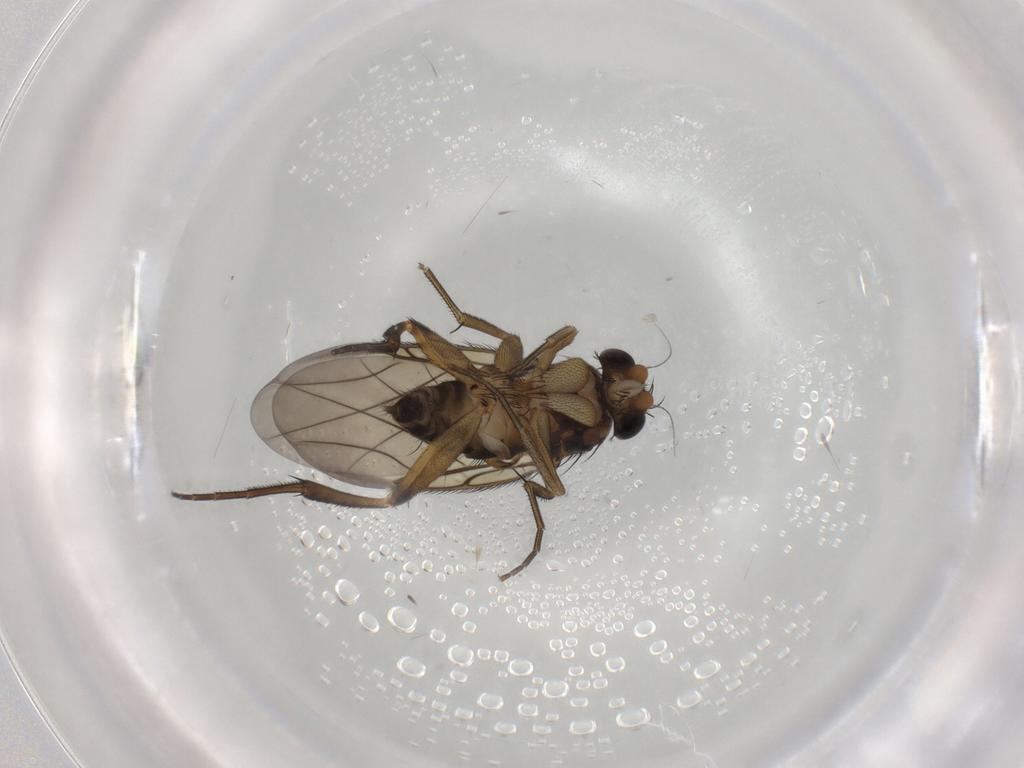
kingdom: Animalia
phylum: Arthropoda
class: Insecta
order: Diptera
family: Phoridae
